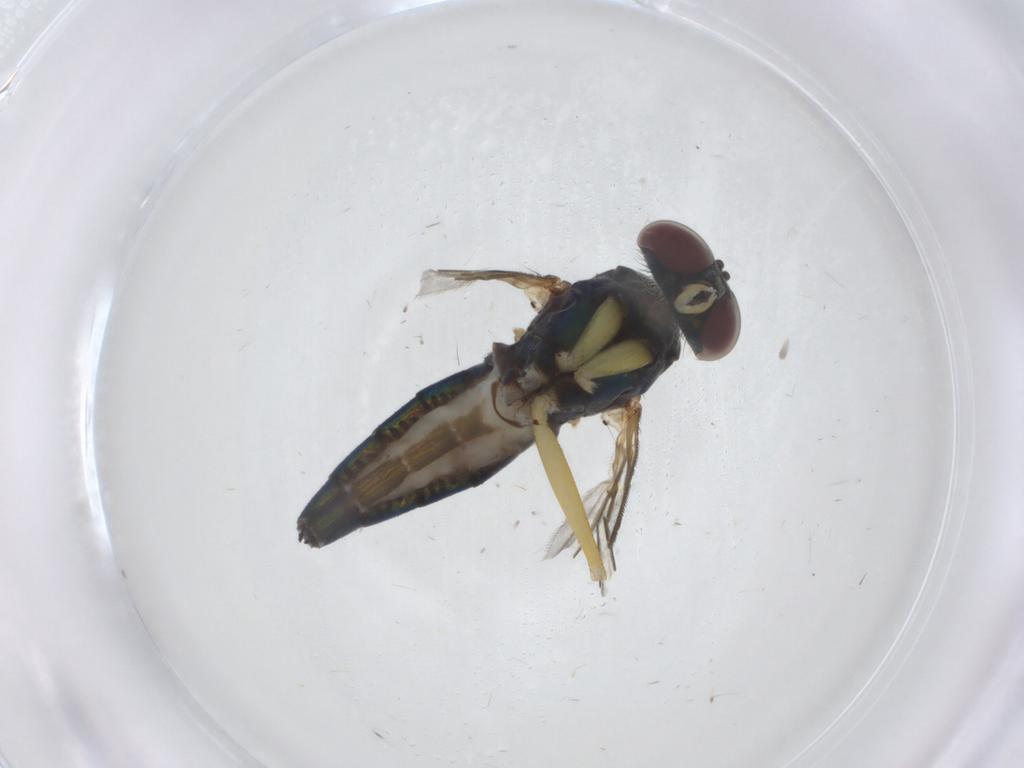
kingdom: Animalia
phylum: Arthropoda
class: Insecta
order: Diptera
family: Dolichopodidae
